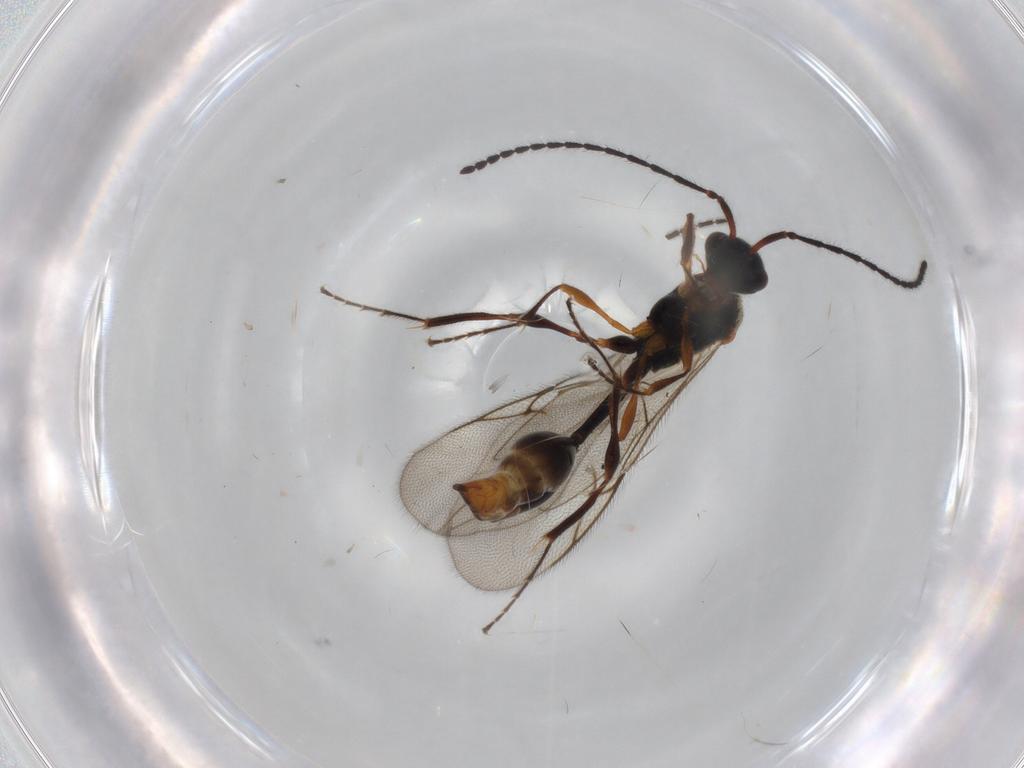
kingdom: Animalia
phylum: Arthropoda
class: Insecta
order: Hymenoptera
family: Diapriidae
